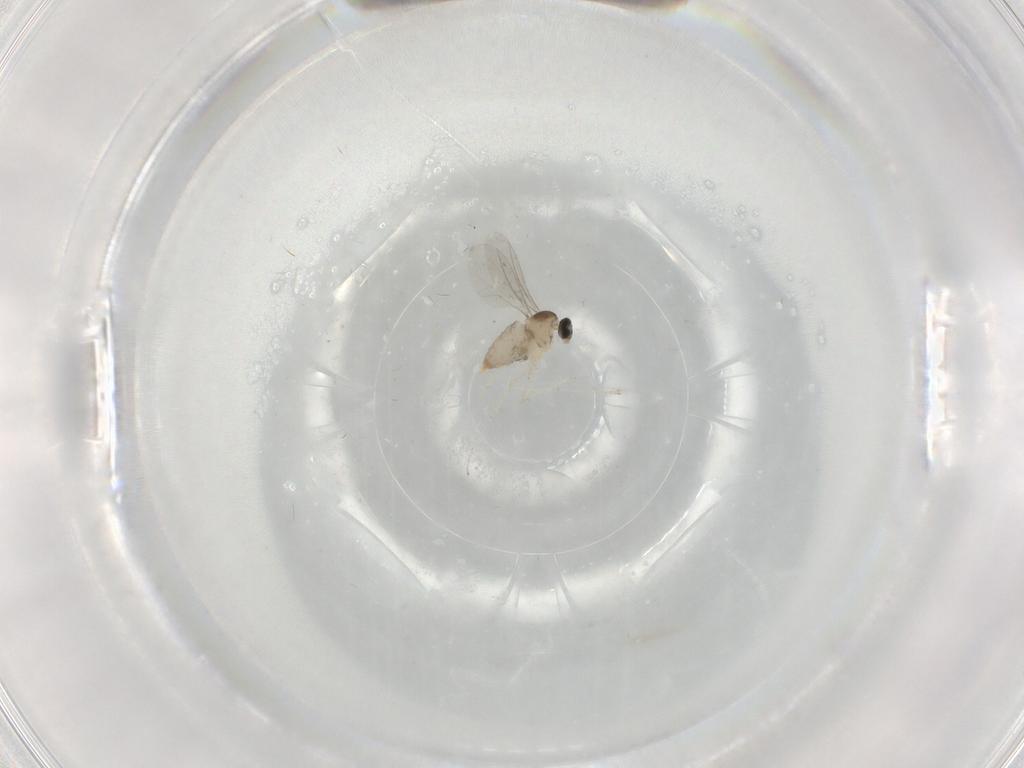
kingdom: Animalia
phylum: Arthropoda
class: Insecta
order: Diptera
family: Cecidomyiidae
